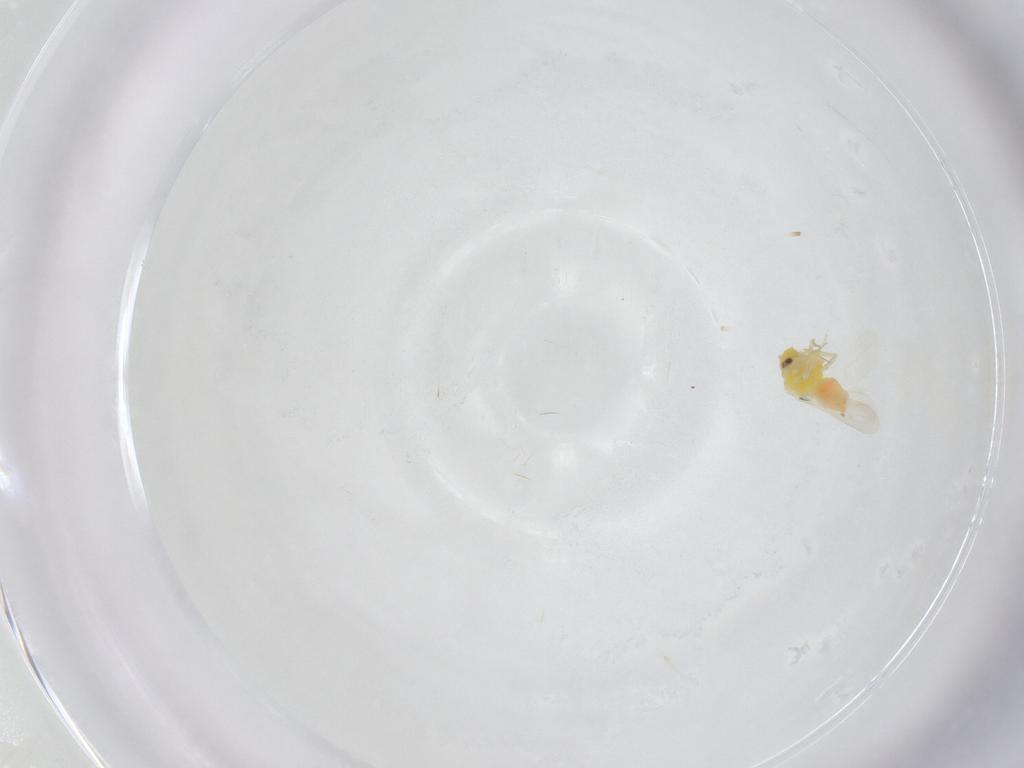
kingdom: Animalia
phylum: Arthropoda
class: Insecta
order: Hemiptera
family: Aleyrodidae
